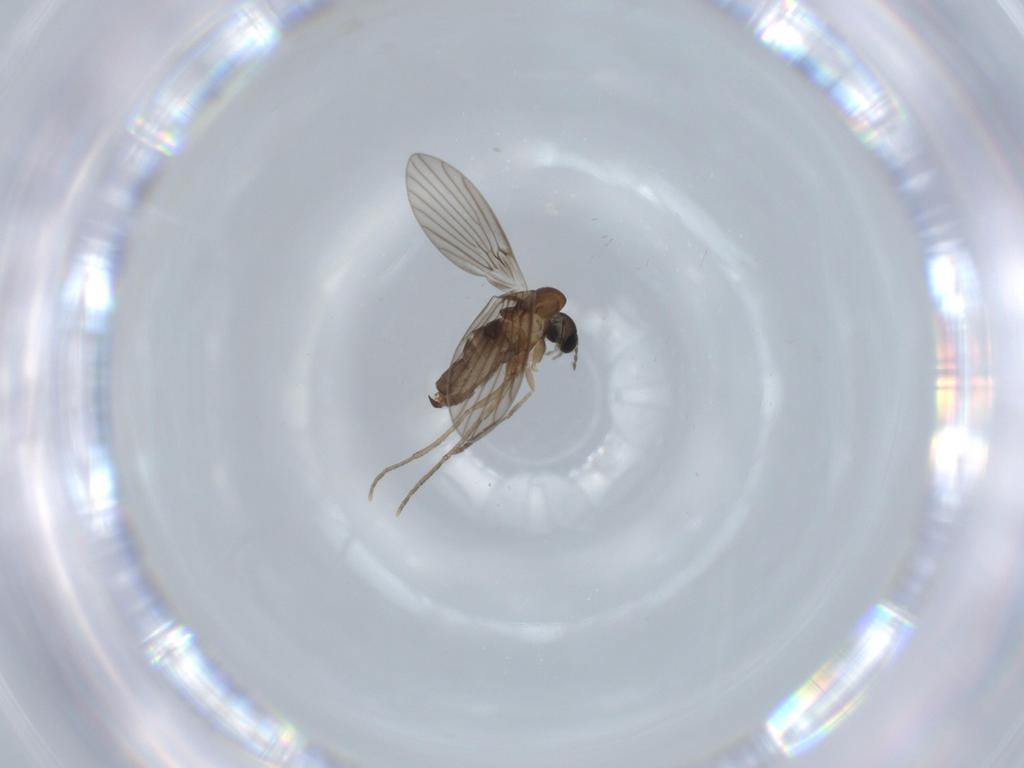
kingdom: Animalia
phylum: Arthropoda
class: Insecta
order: Diptera
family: Psychodidae
